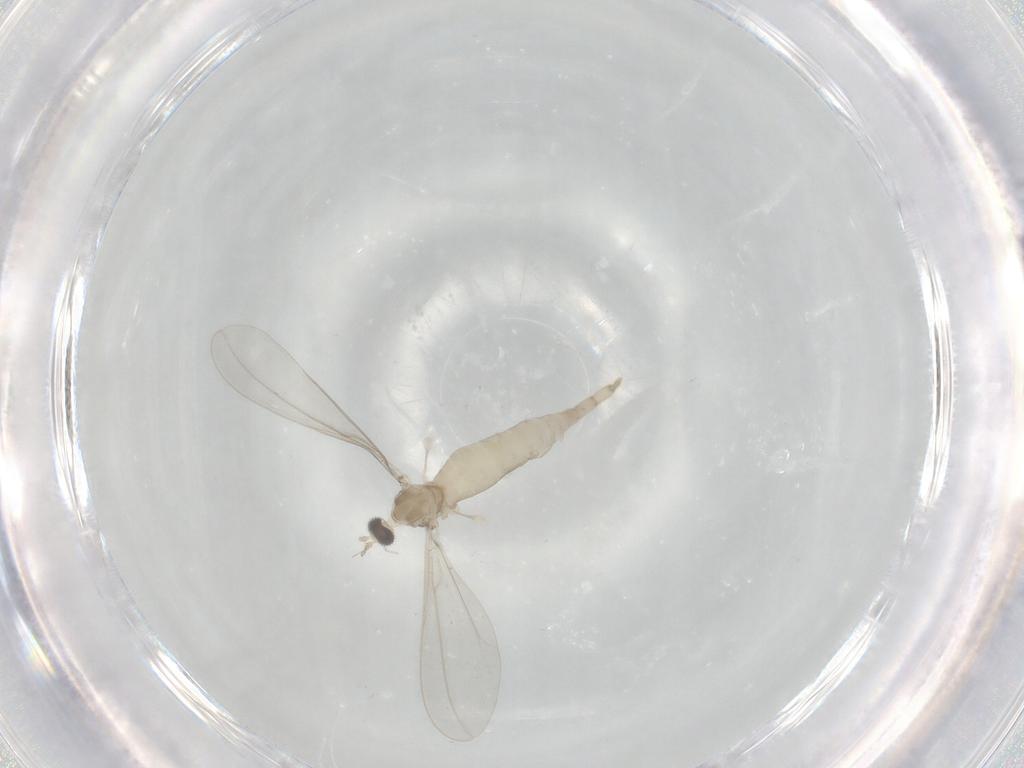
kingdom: Animalia
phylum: Arthropoda
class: Insecta
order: Diptera
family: Cecidomyiidae
